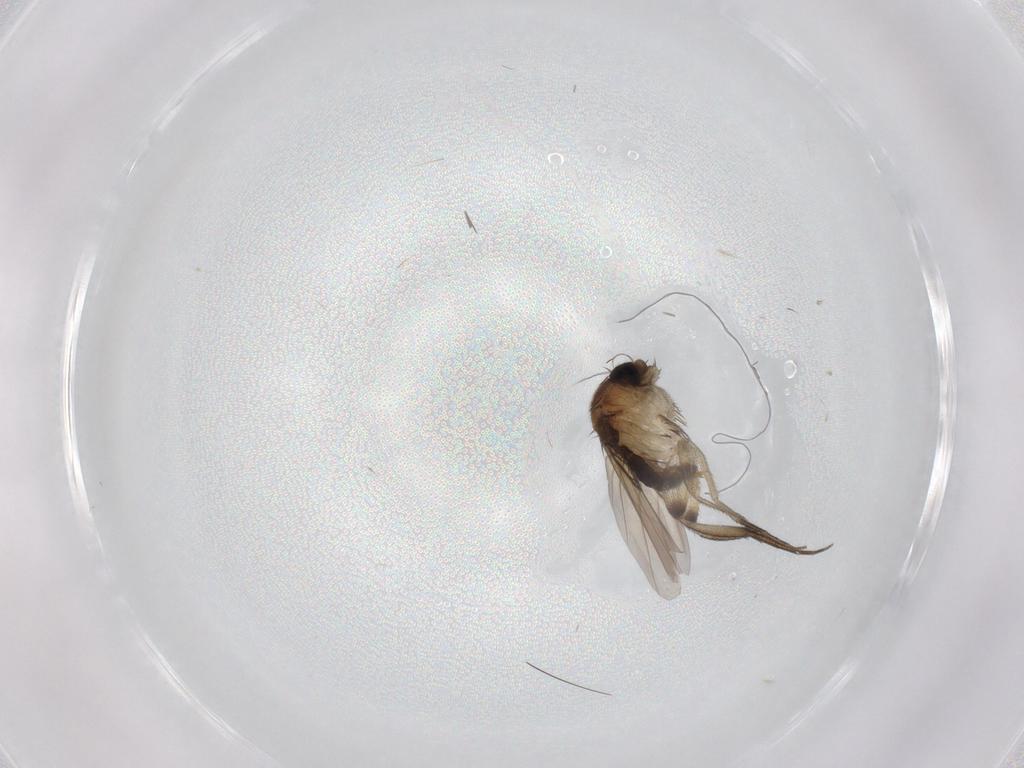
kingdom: Animalia
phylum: Arthropoda
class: Insecta
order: Diptera
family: Phoridae
